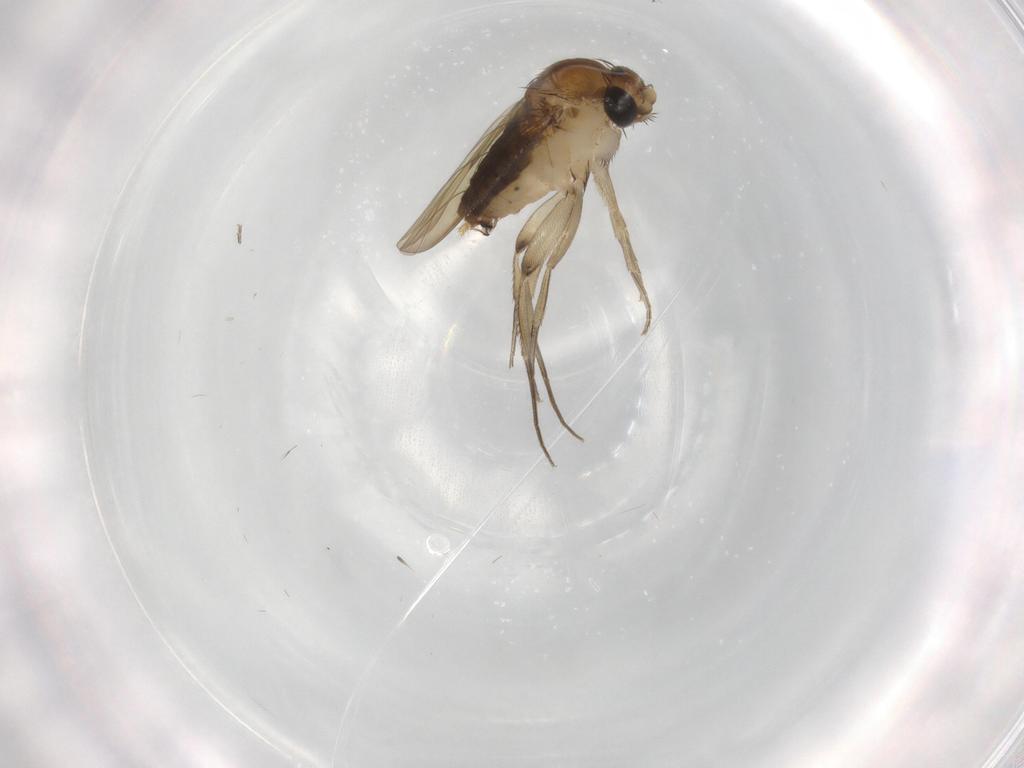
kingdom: Animalia
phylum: Arthropoda
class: Insecta
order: Diptera
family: Phoridae
